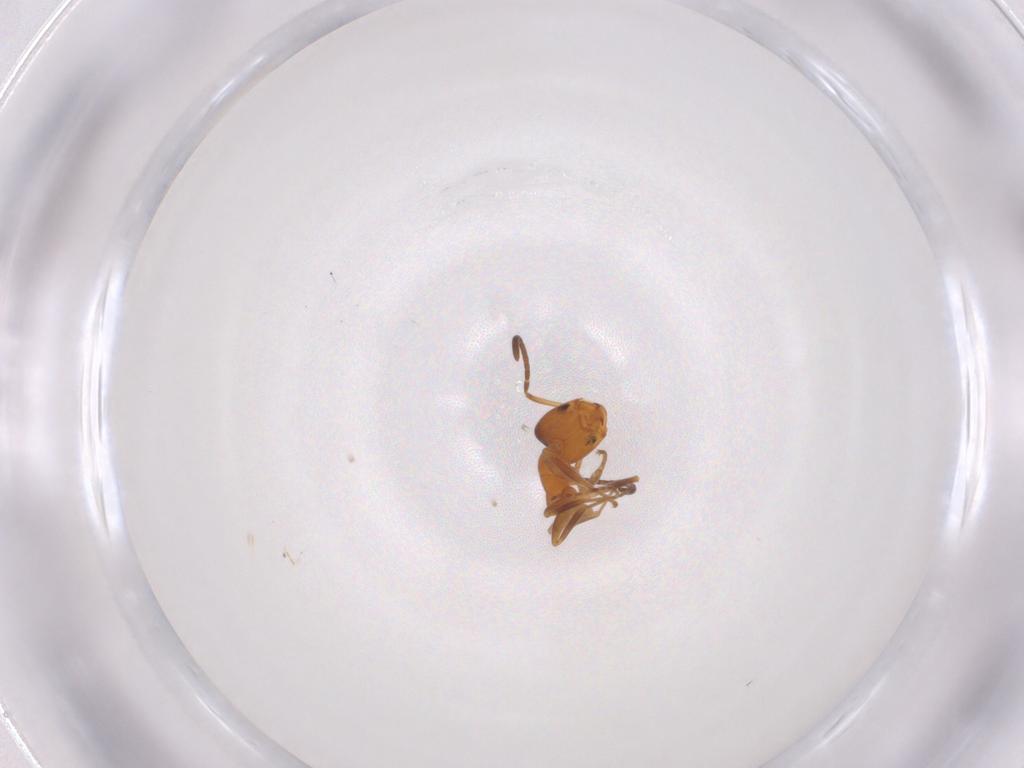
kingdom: Animalia
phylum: Arthropoda
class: Insecta
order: Hymenoptera
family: Formicidae
